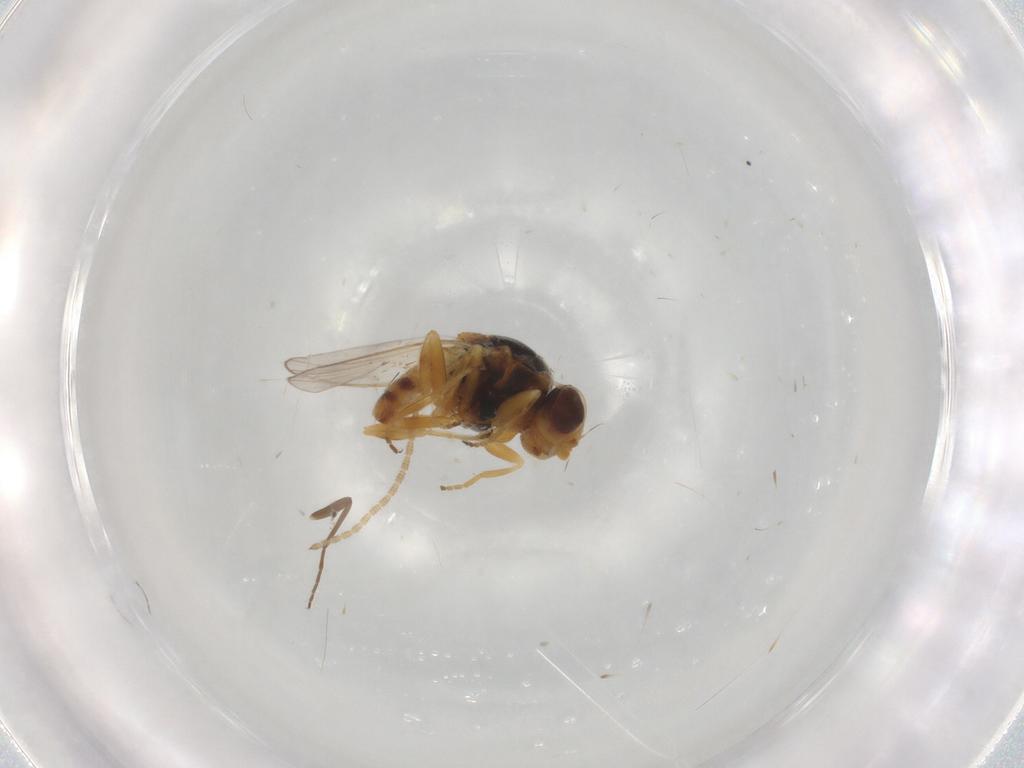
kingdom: Animalia
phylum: Arthropoda
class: Insecta
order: Diptera
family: Chironomidae
